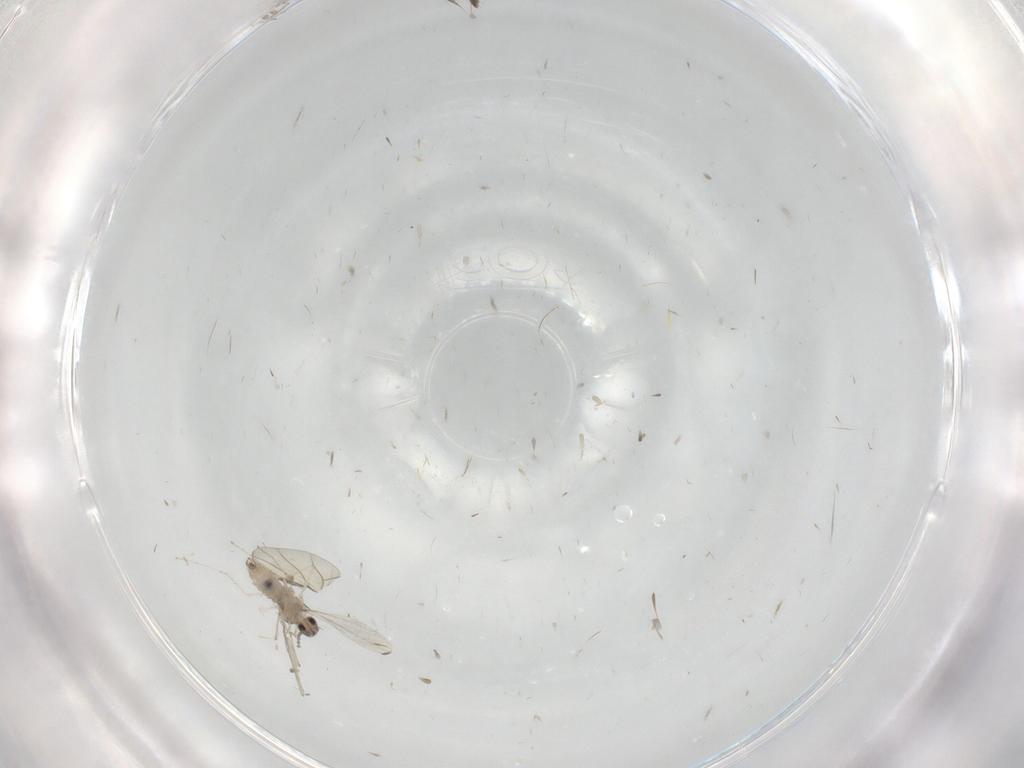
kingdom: Animalia
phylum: Arthropoda
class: Insecta
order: Diptera
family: Cecidomyiidae
